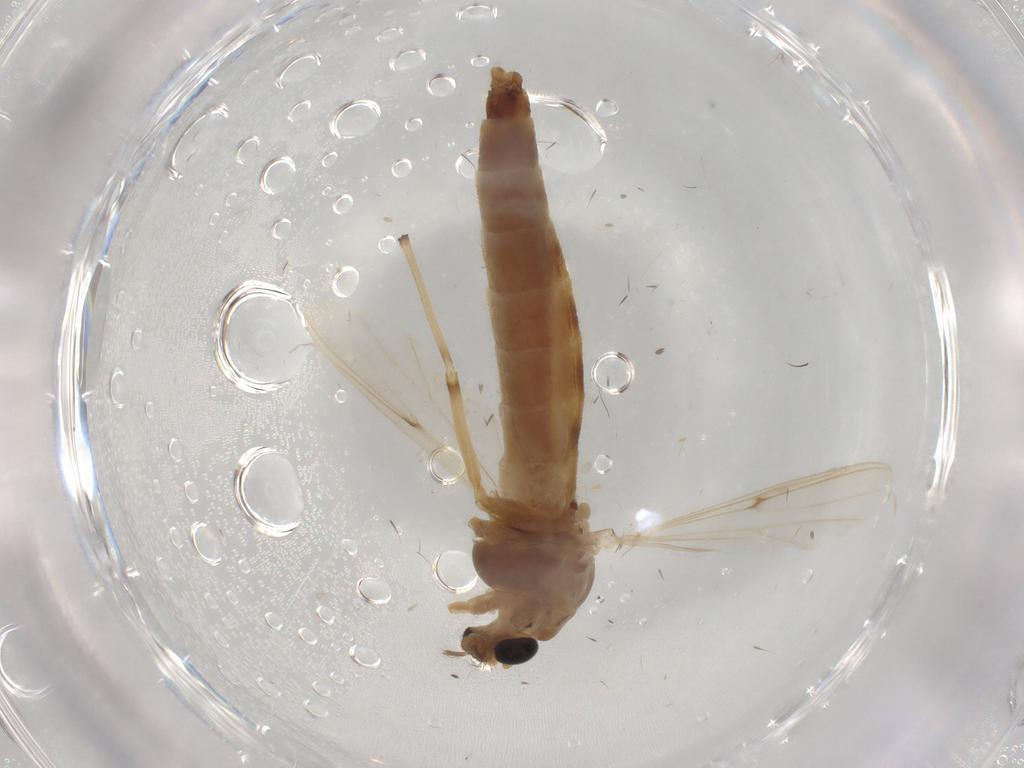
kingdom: Animalia
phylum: Arthropoda
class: Insecta
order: Diptera
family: Chironomidae
